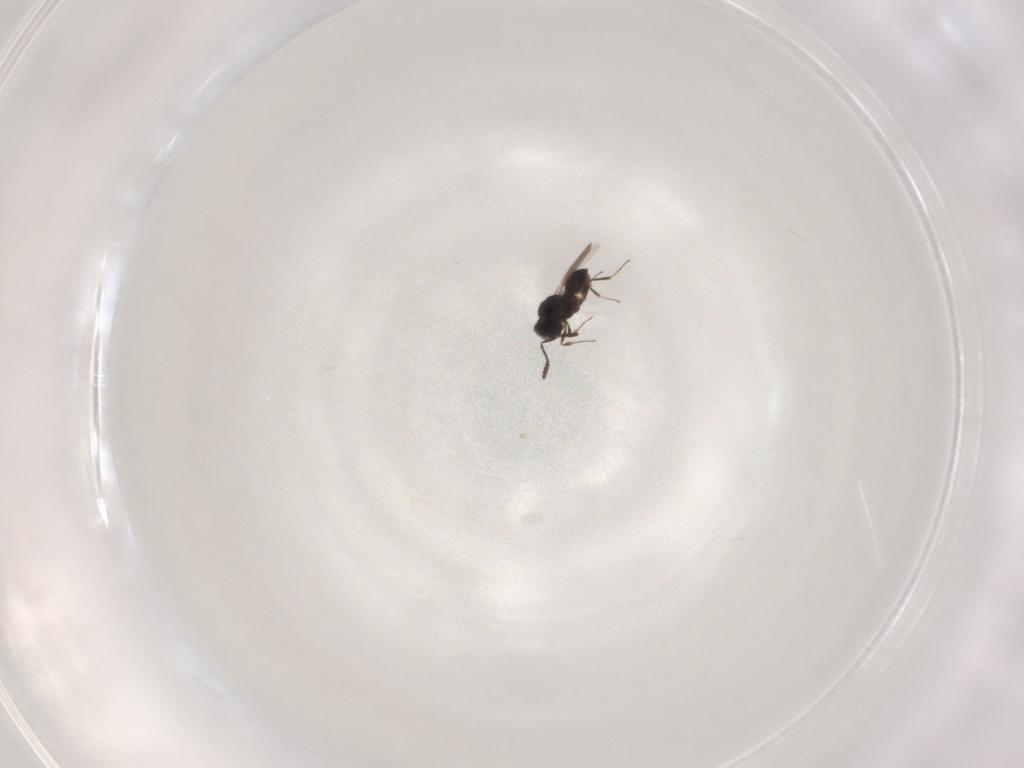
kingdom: Animalia
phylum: Arthropoda
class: Insecta
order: Hymenoptera
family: Scelionidae
